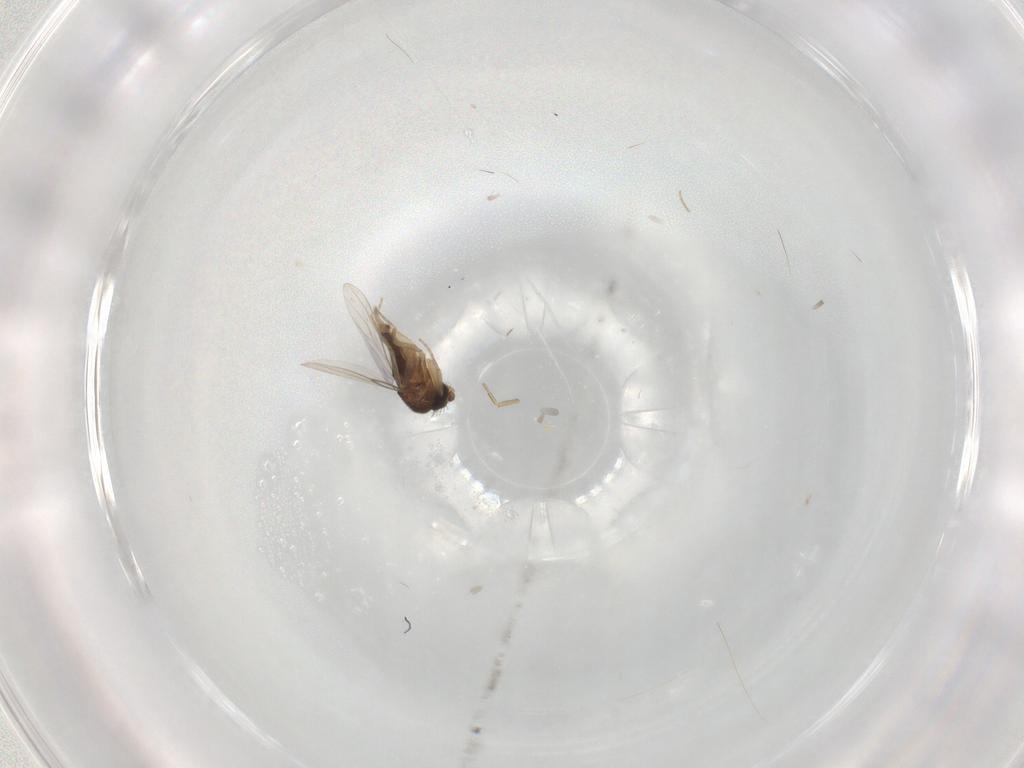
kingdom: Animalia
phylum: Arthropoda
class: Insecta
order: Diptera
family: Phoridae
